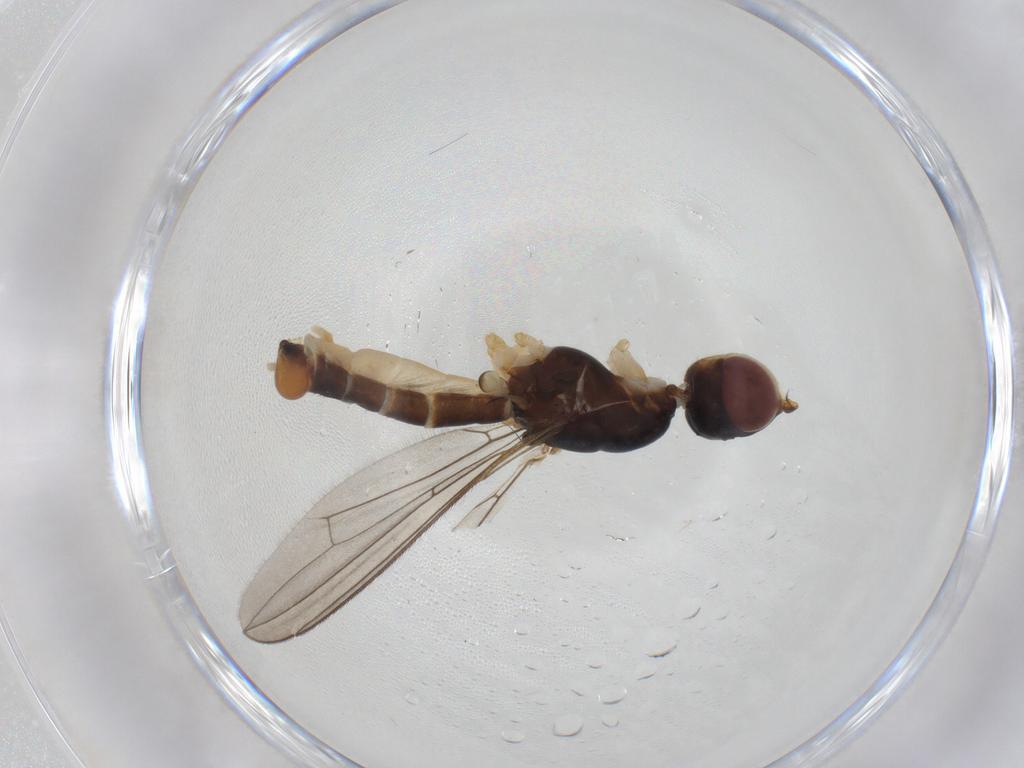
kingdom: Animalia
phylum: Arthropoda
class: Insecta
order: Diptera
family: Micropezidae
